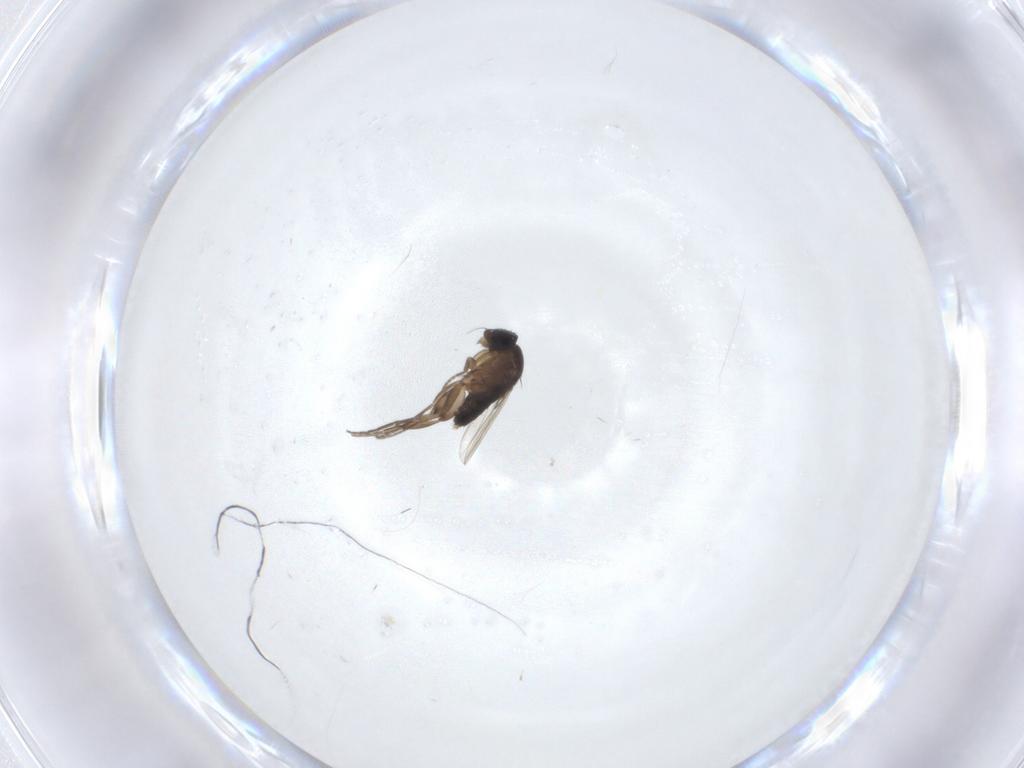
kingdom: Animalia
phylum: Arthropoda
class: Insecta
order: Diptera
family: Phoridae
